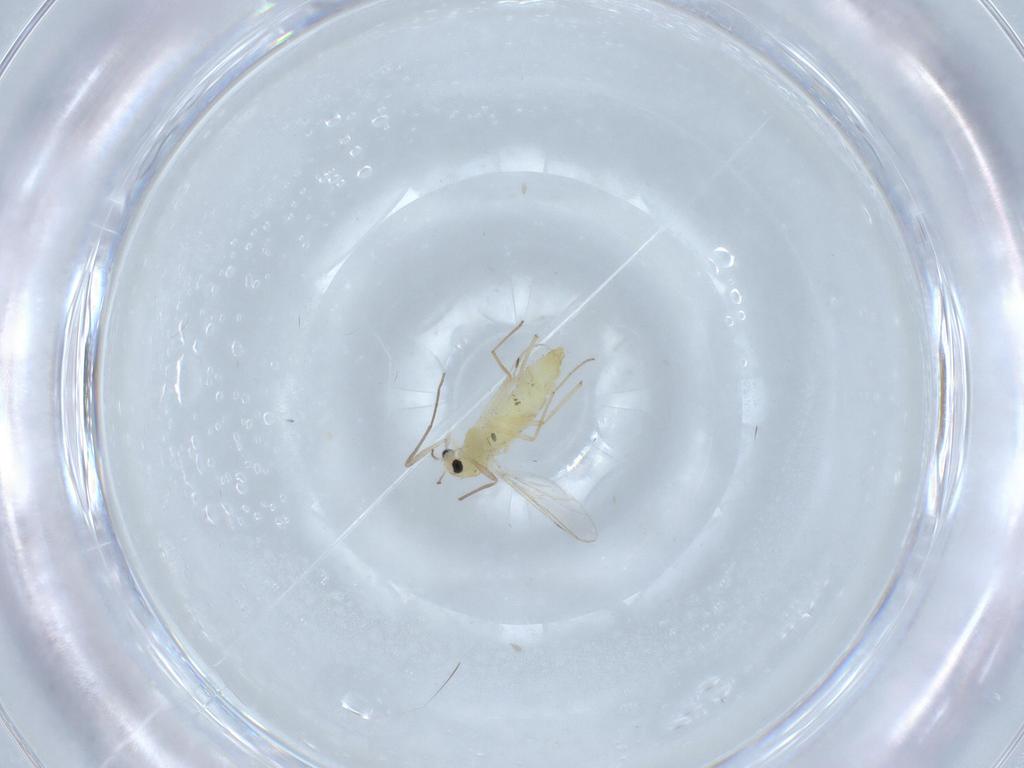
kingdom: Animalia
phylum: Arthropoda
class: Insecta
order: Diptera
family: Chironomidae
